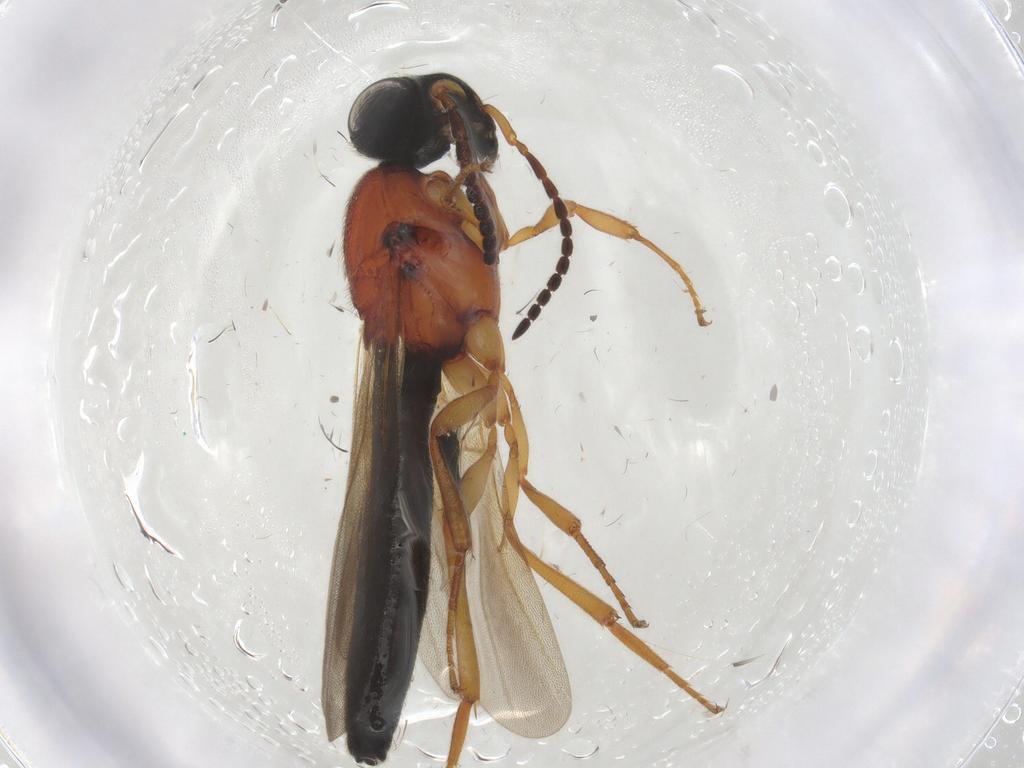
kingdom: Animalia
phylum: Arthropoda
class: Insecta
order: Hymenoptera
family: Scelionidae
